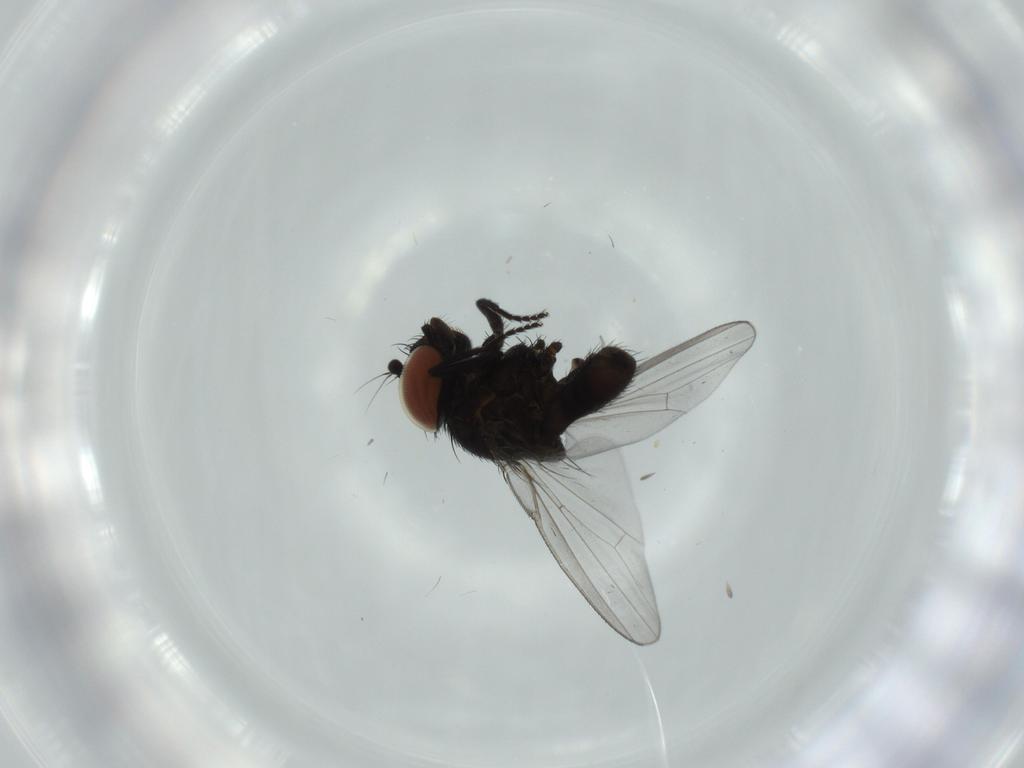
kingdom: Animalia
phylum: Arthropoda
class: Insecta
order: Diptera
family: Milichiidae
